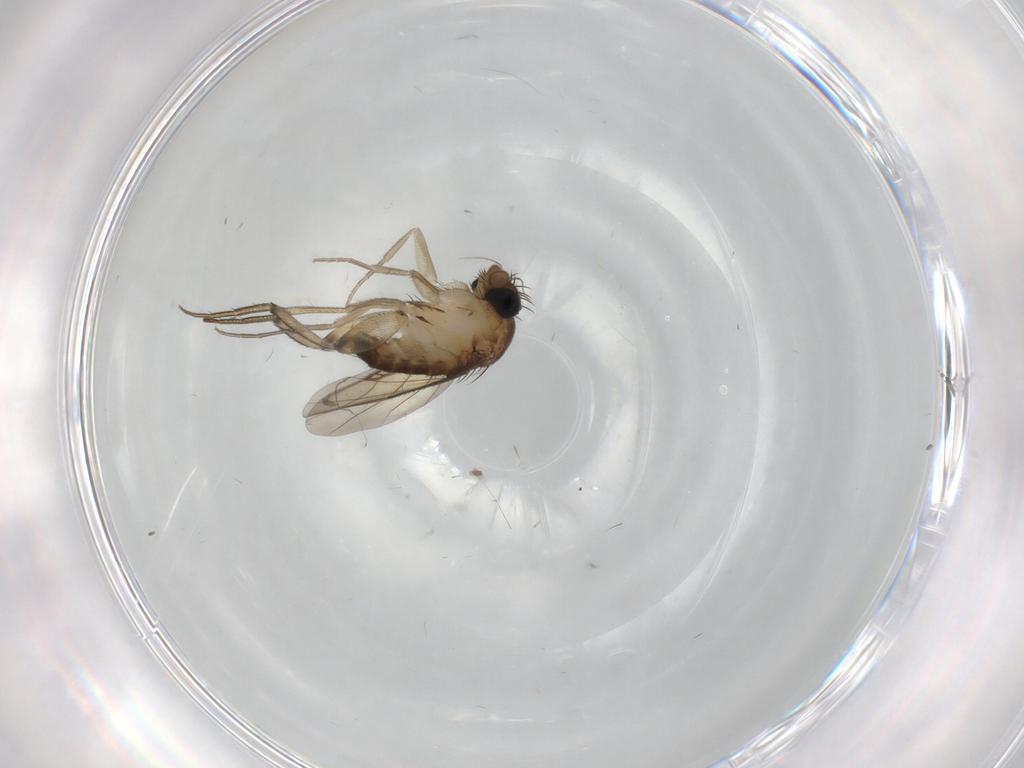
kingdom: Animalia
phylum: Arthropoda
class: Insecta
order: Diptera
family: Phoridae
